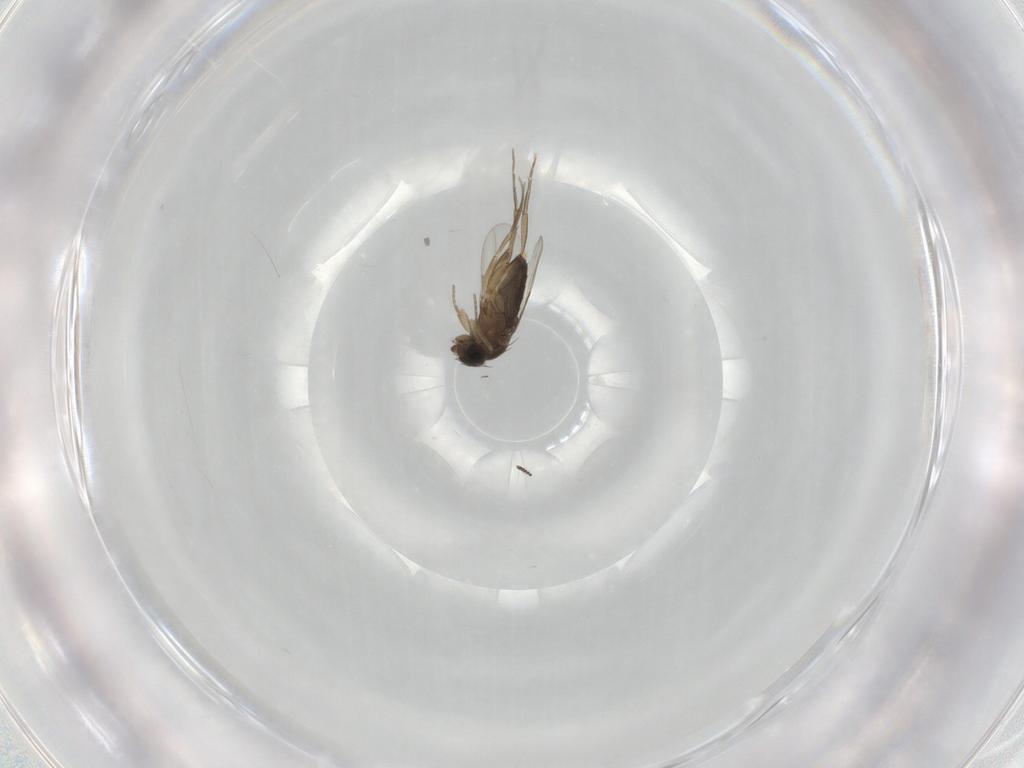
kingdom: Animalia
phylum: Arthropoda
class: Insecta
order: Diptera
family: Phoridae
